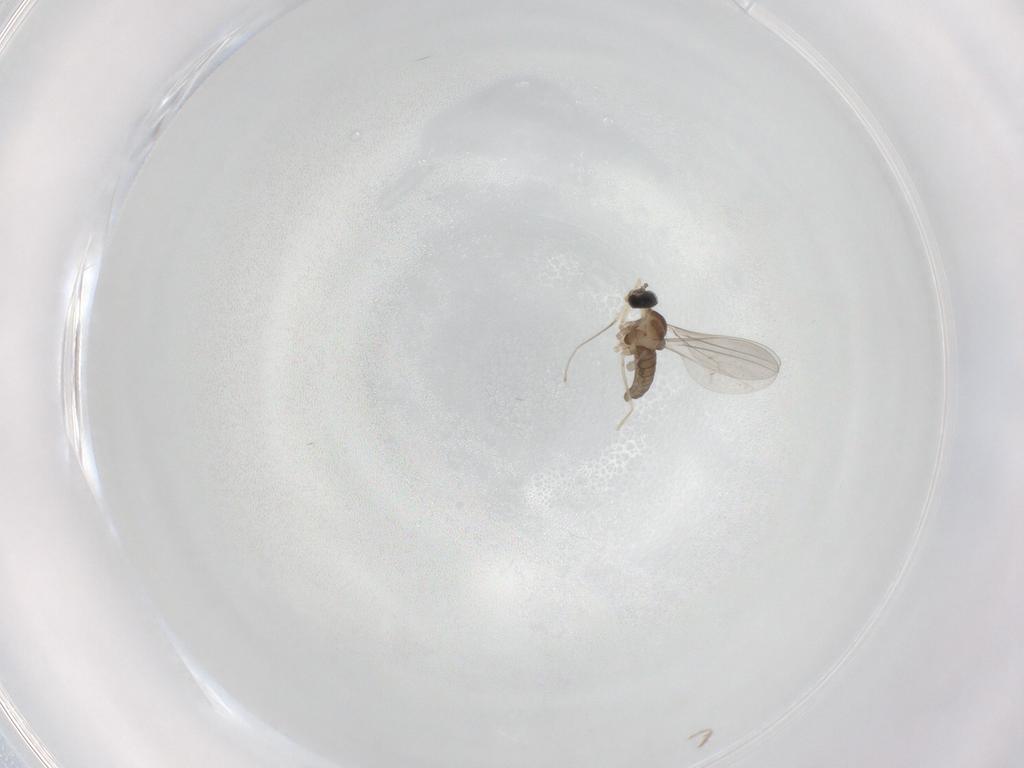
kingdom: Animalia
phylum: Arthropoda
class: Insecta
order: Diptera
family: Cecidomyiidae
